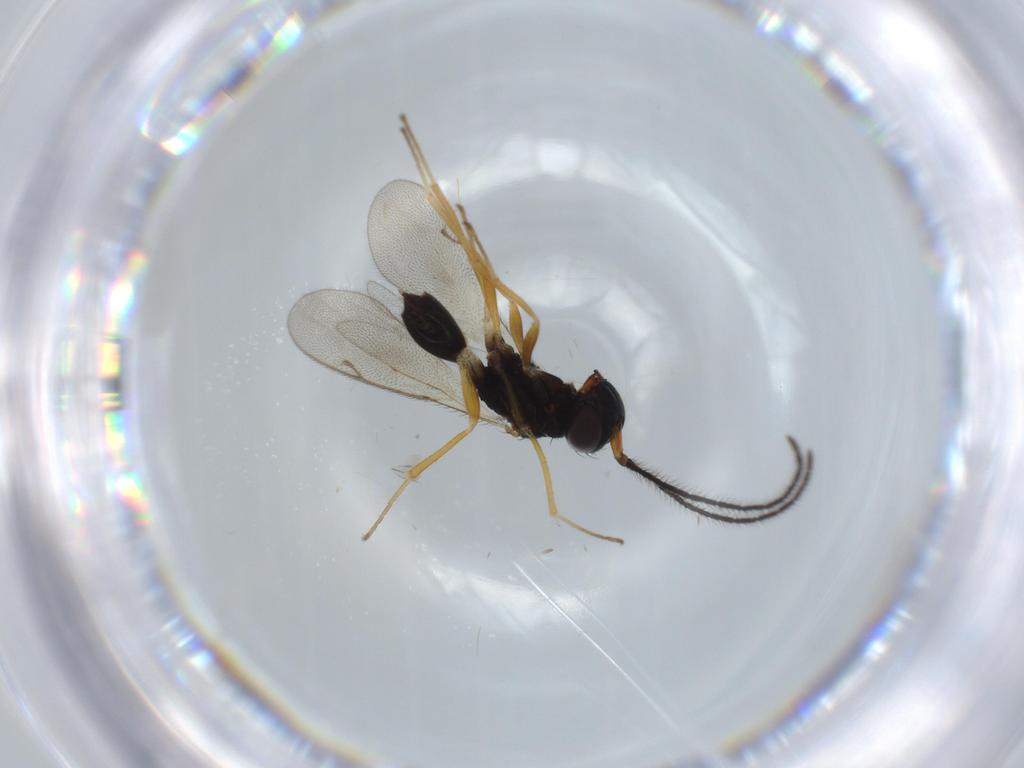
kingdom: Animalia
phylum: Arthropoda
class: Insecta
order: Hymenoptera
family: Diparidae
